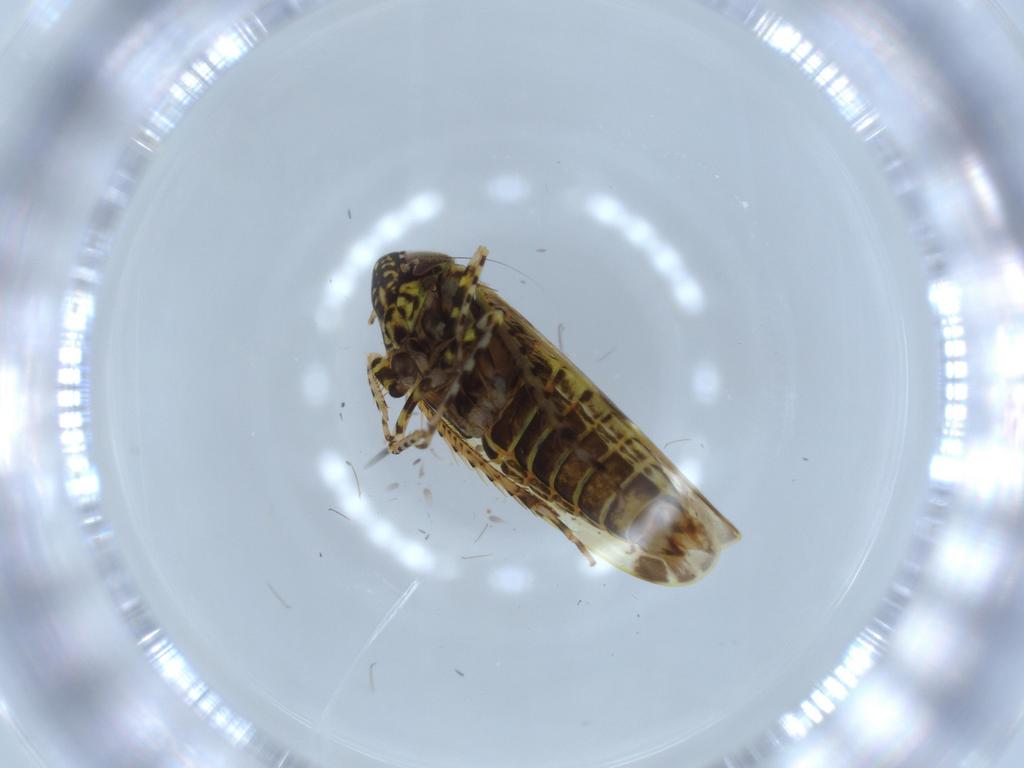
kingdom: Animalia
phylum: Arthropoda
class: Insecta
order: Hemiptera
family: Cicadellidae
